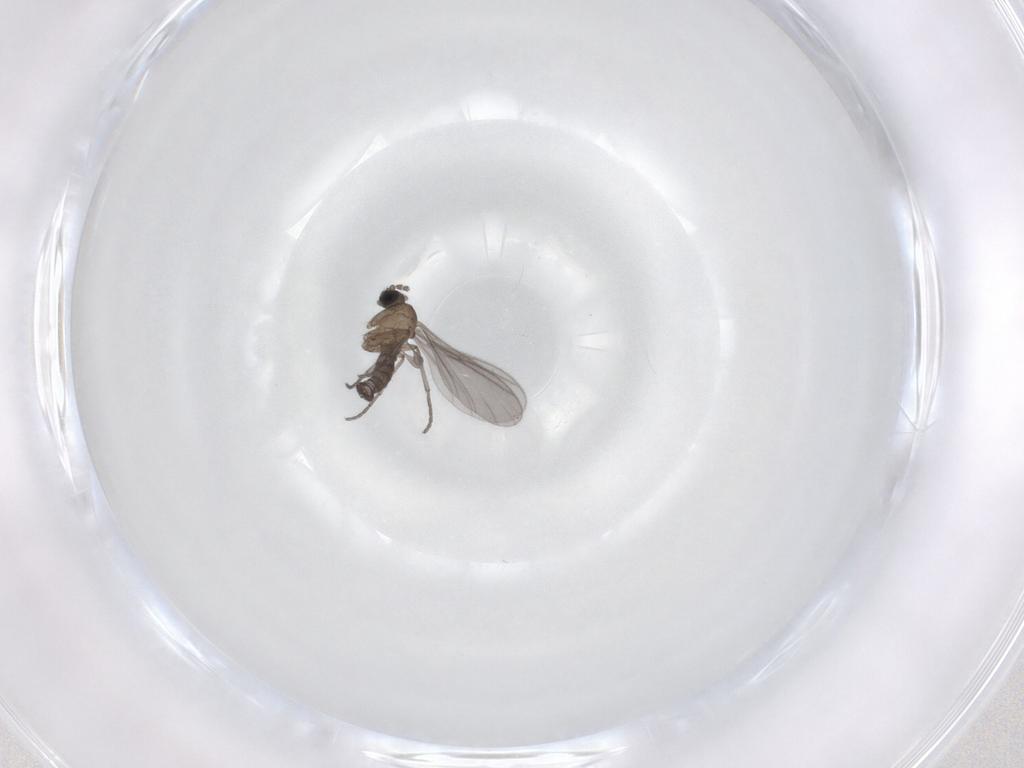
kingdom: Animalia
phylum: Arthropoda
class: Insecta
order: Diptera
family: Sciaridae
